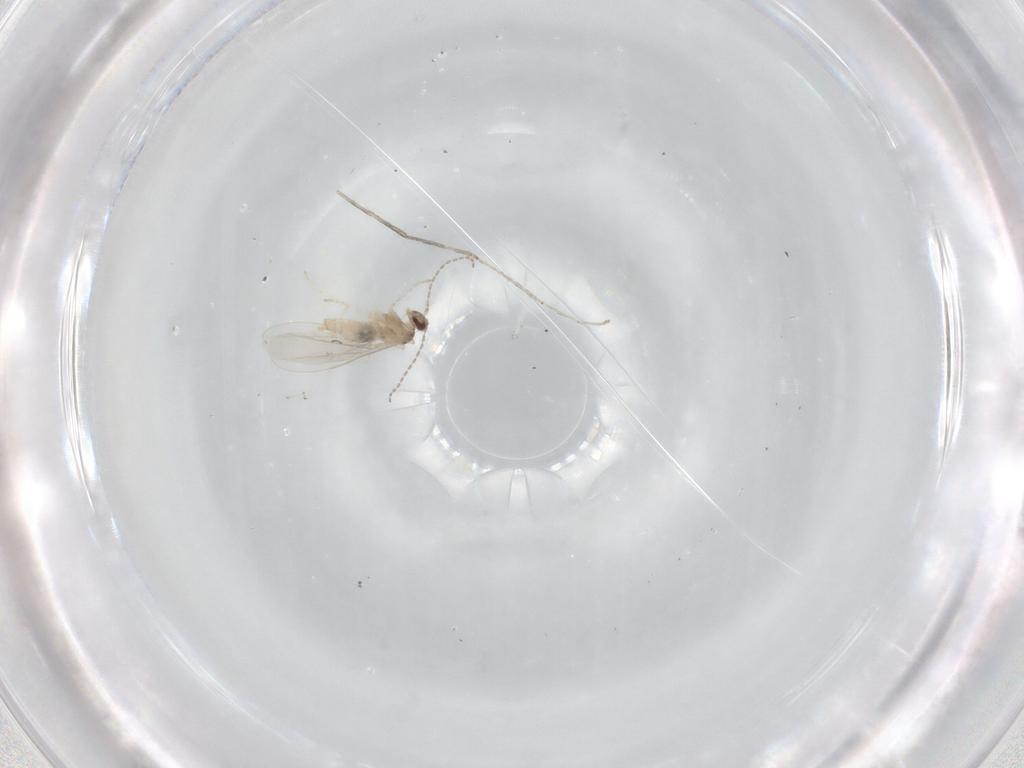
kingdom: Animalia
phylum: Arthropoda
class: Insecta
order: Diptera
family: Cecidomyiidae
